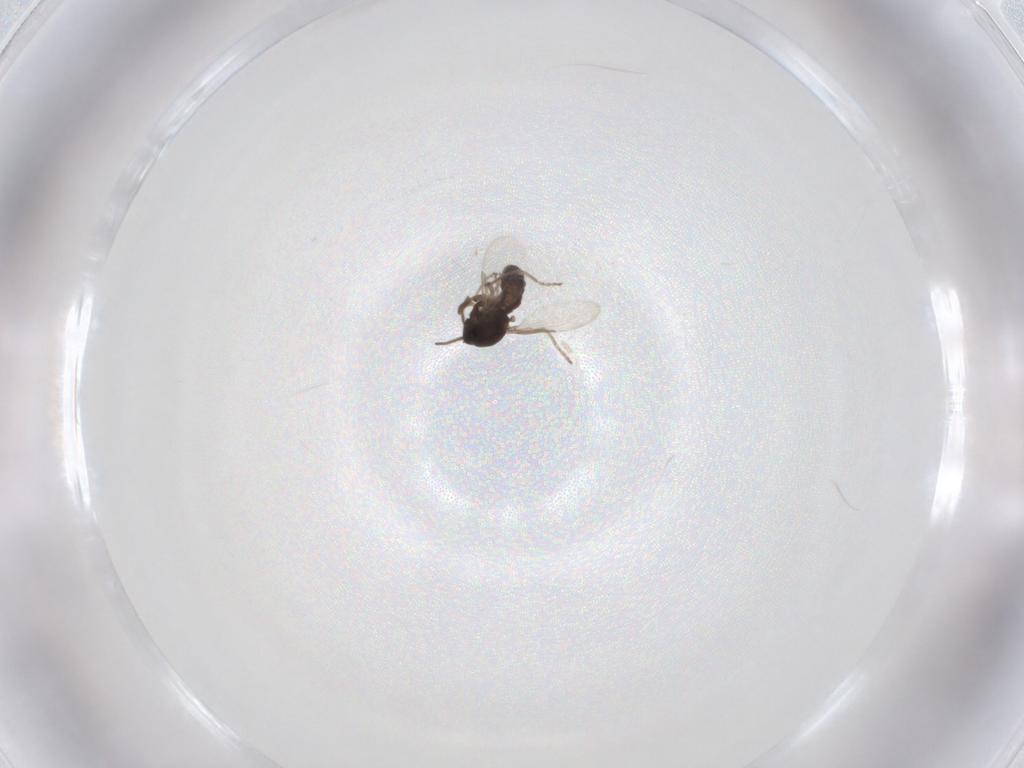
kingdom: Animalia
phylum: Arthropoda
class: Insecta
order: Diptera
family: Ceratopogonidae
